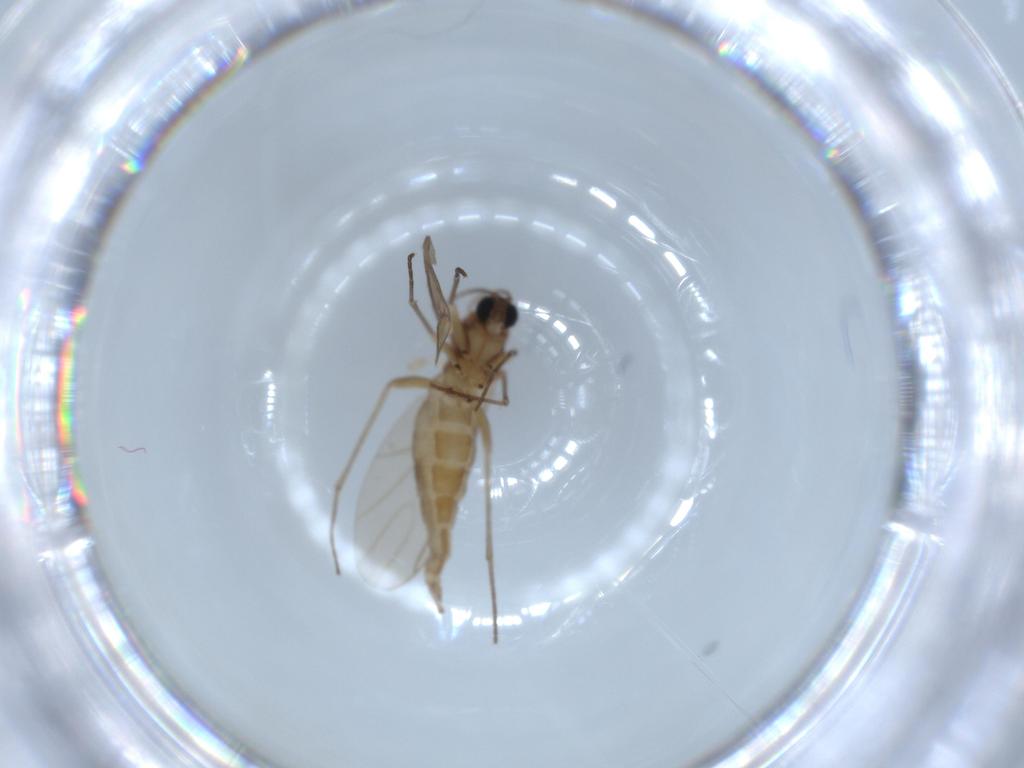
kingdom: Animalia
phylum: Arthropoda
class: Insecta
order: Diptera
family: Sciaridae
